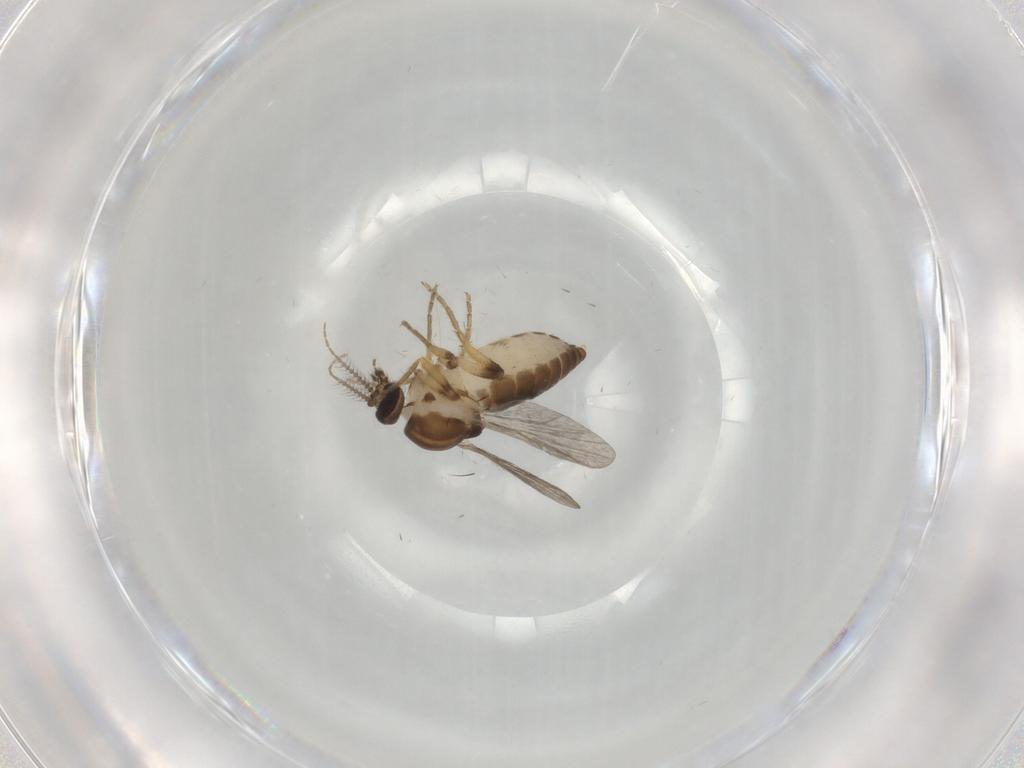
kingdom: Animalia
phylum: Arthropoda
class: Insecta
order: Diptera
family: Ceratopogonidae
